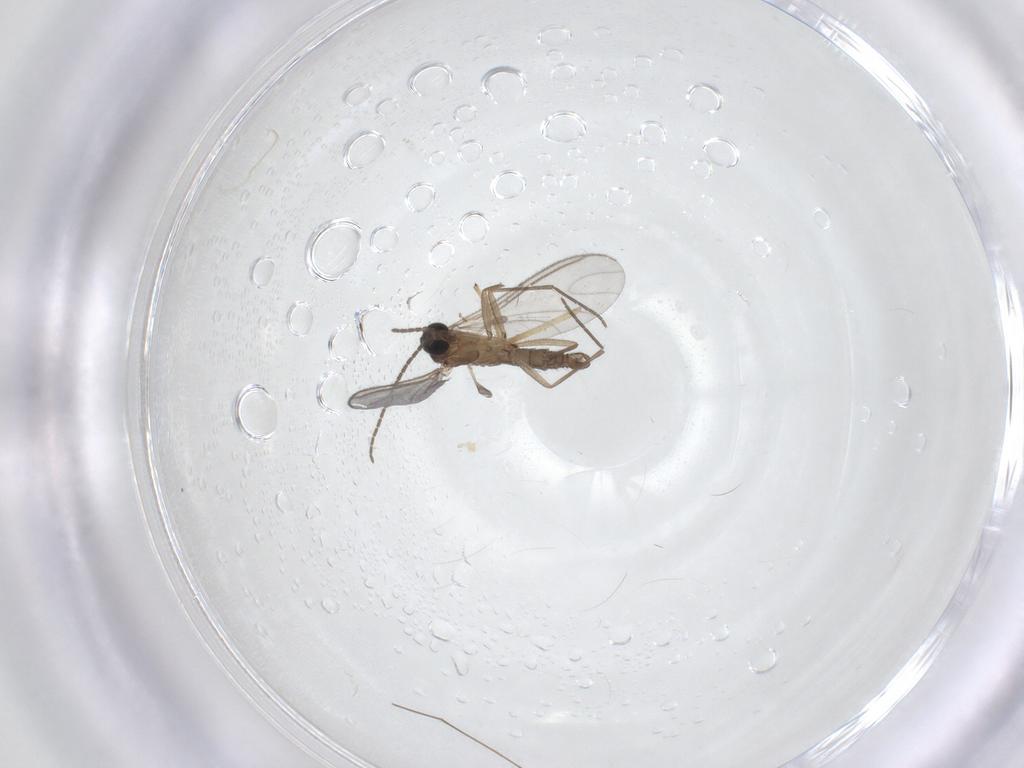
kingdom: Animalia
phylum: Arthropoda
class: Insecta
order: Diptera
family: Sciaridae
